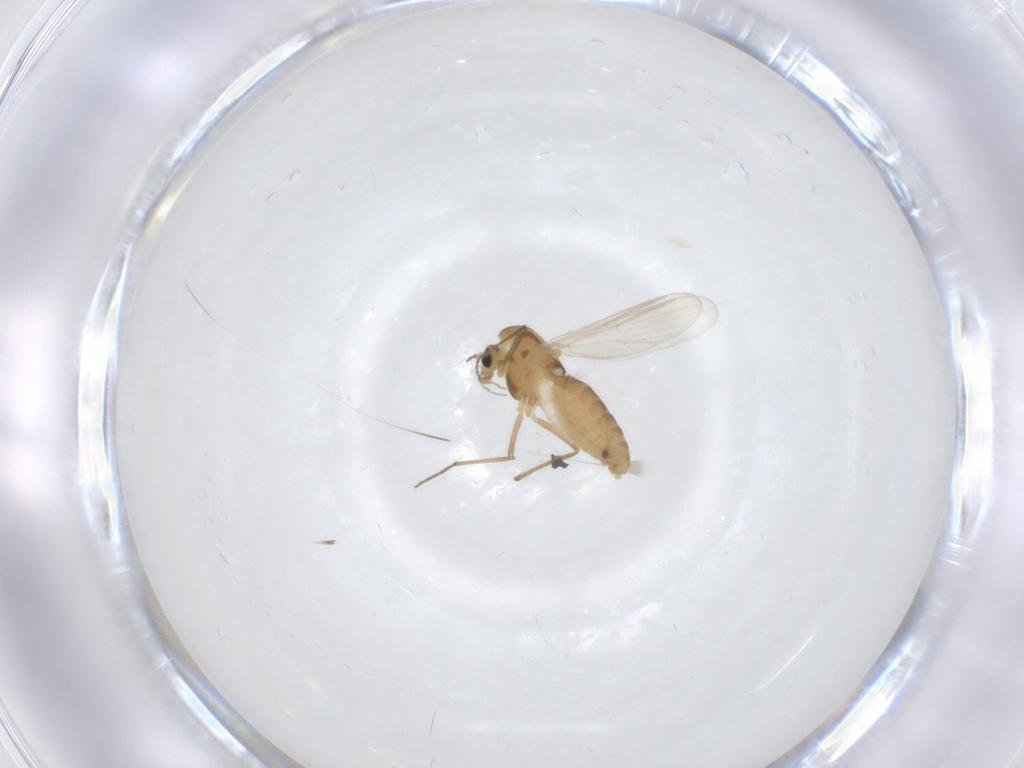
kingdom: Animalia
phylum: Arthropoda
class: Insecta
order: Diptera
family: Chironomidae
